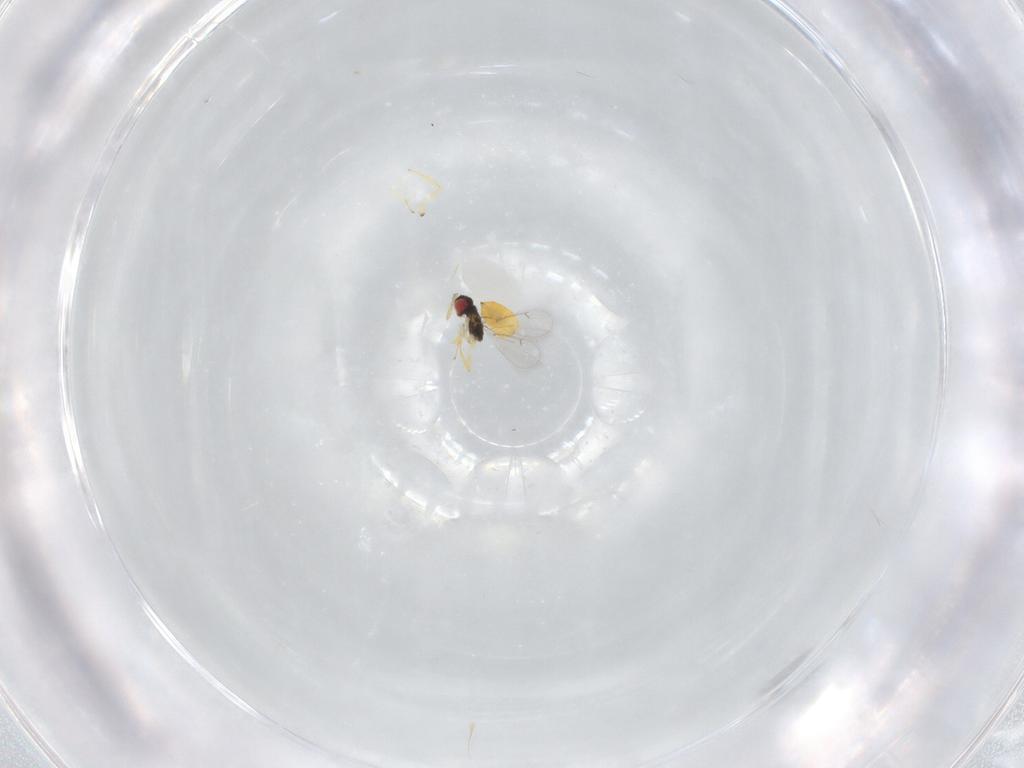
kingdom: Animalia
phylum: Arthropoda
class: Insecta
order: Hymenoptera
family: Eulophidae
